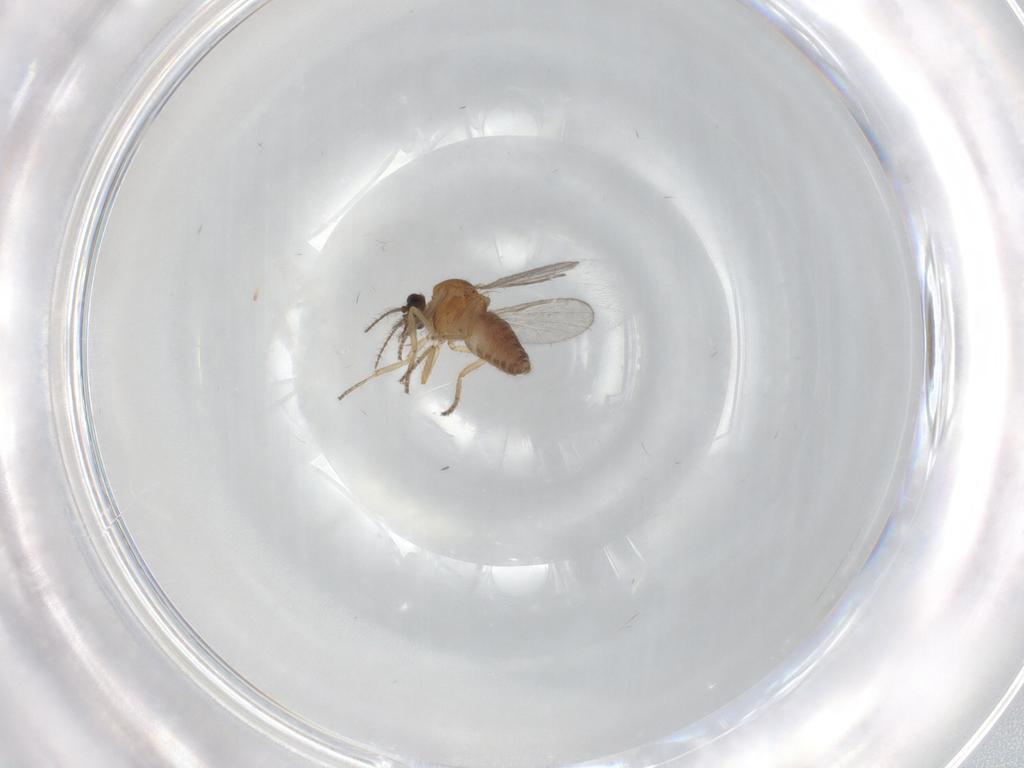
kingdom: Animalia
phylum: Arthropoda
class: Insecta
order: Diptera
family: Ceratopogonidae
